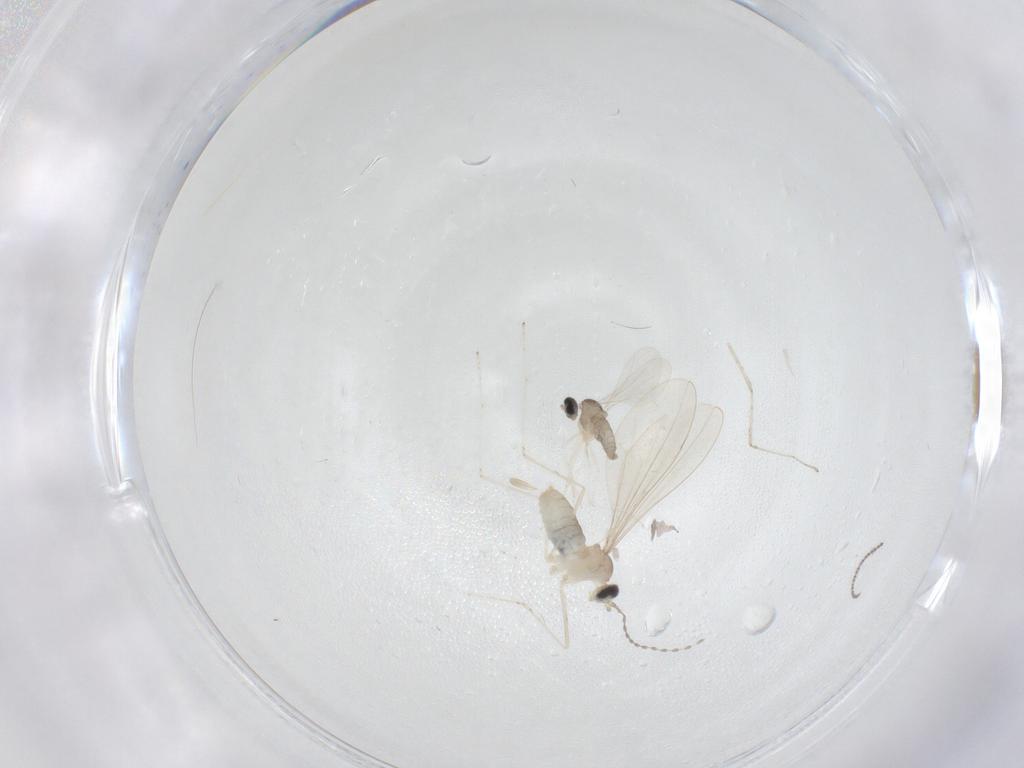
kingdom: Animalia
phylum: Arthropoda
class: Insecta
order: Diptera
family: Cecidomyiidae
